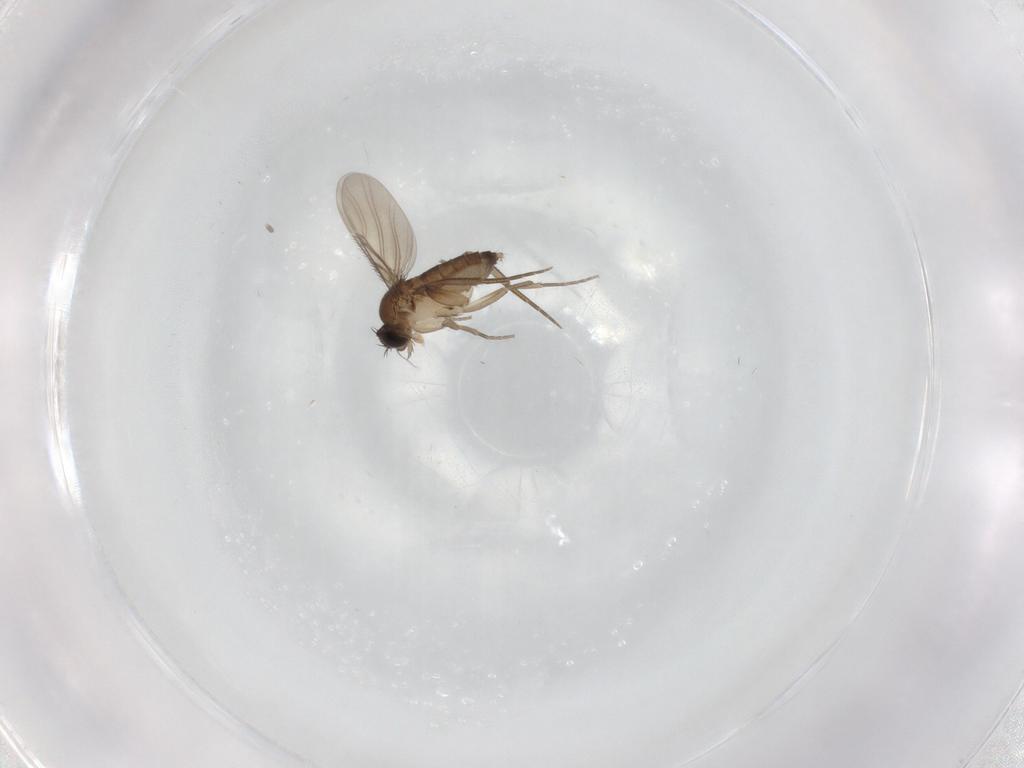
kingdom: Animalia
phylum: Arthropoda
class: Insecta
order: Diptera
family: Phoridae
